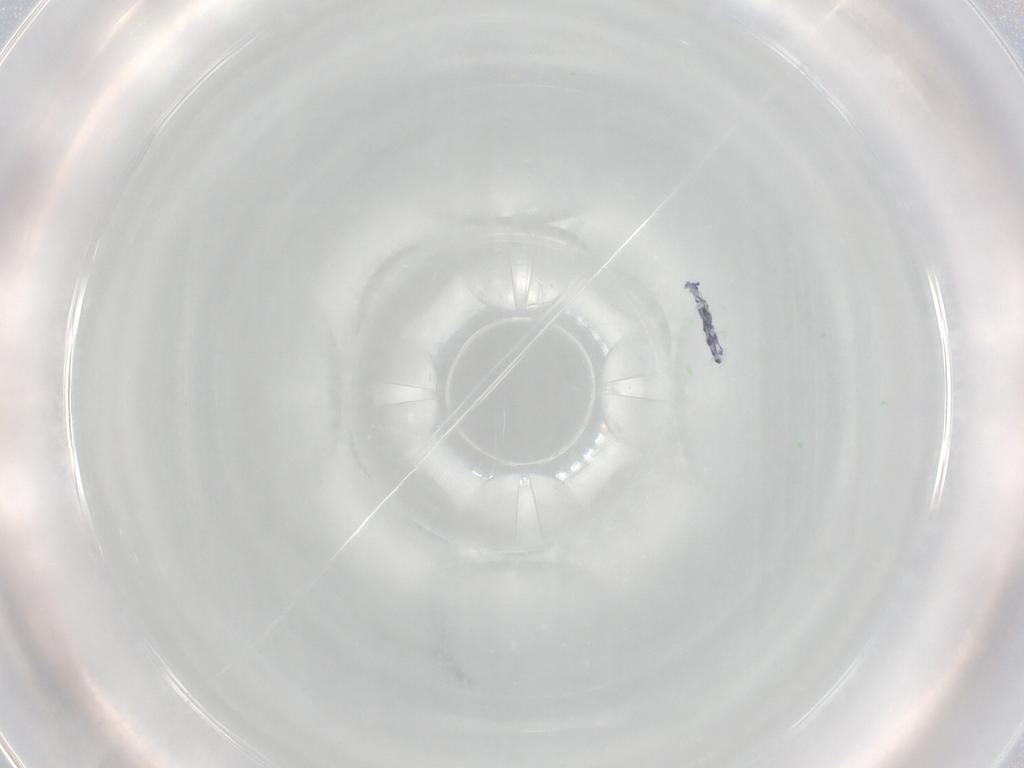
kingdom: Animalia
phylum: Arthropoda
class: Collembola
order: Entomobryomorpha
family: Entomobryidae
